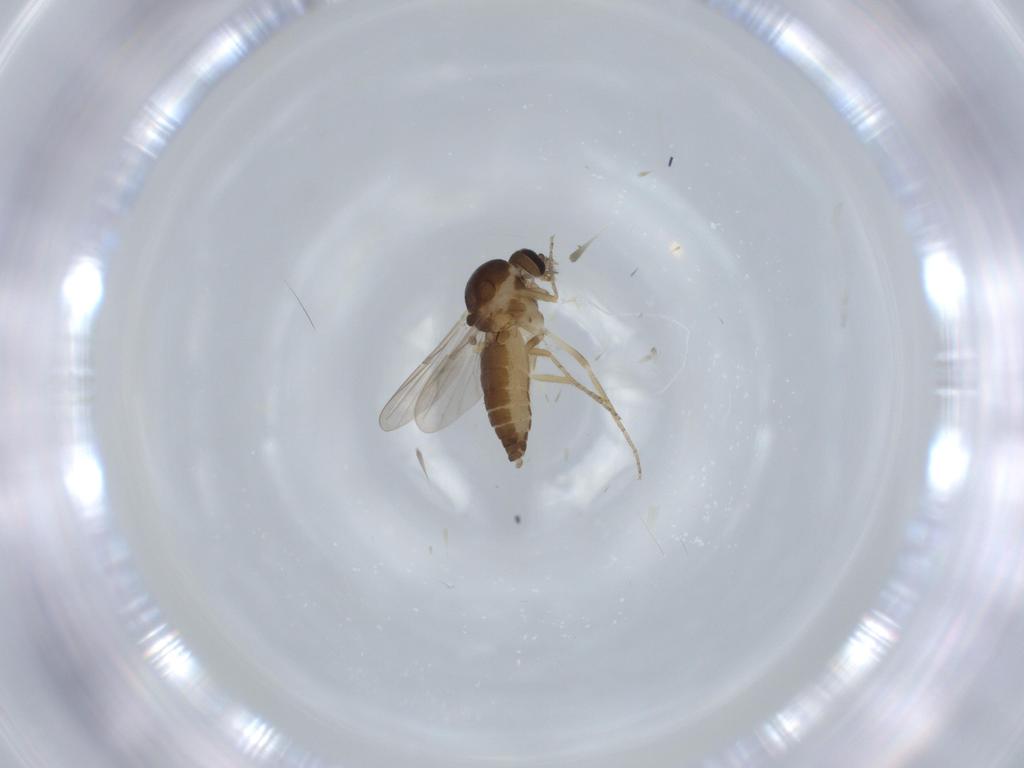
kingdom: Animalia
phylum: Arthropoda
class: Insecta
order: Diptera
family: Ceratopogonidae
